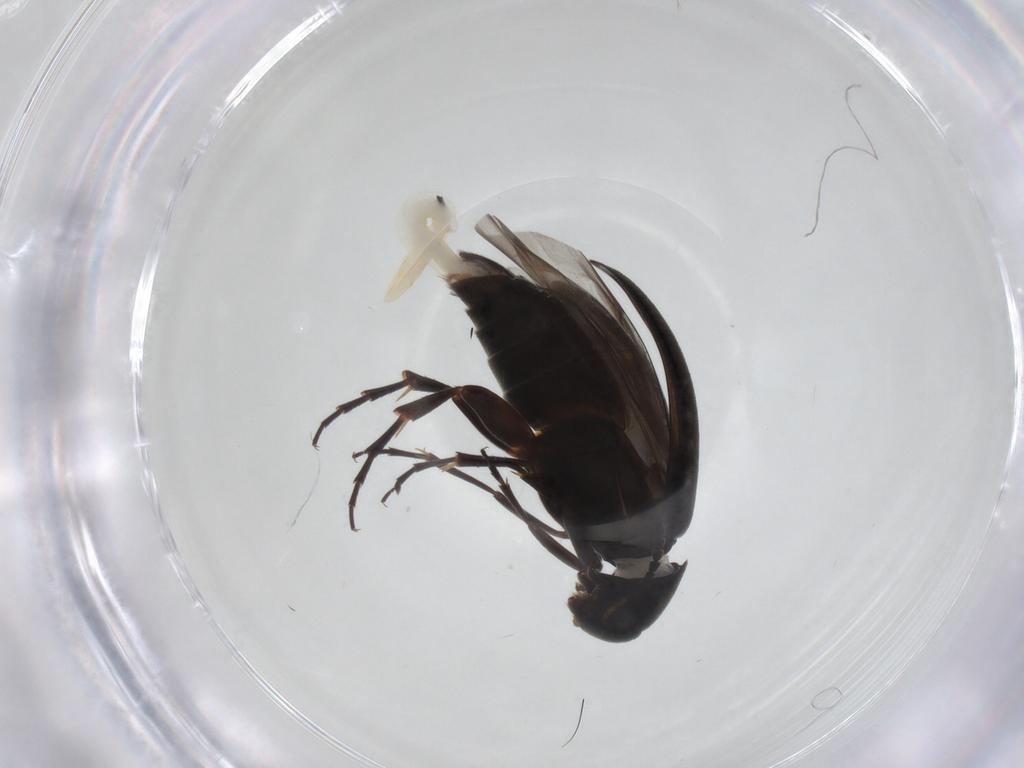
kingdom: Animalia
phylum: Arthropoda
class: Insecta
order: Coleoptera
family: Scraptiidae
